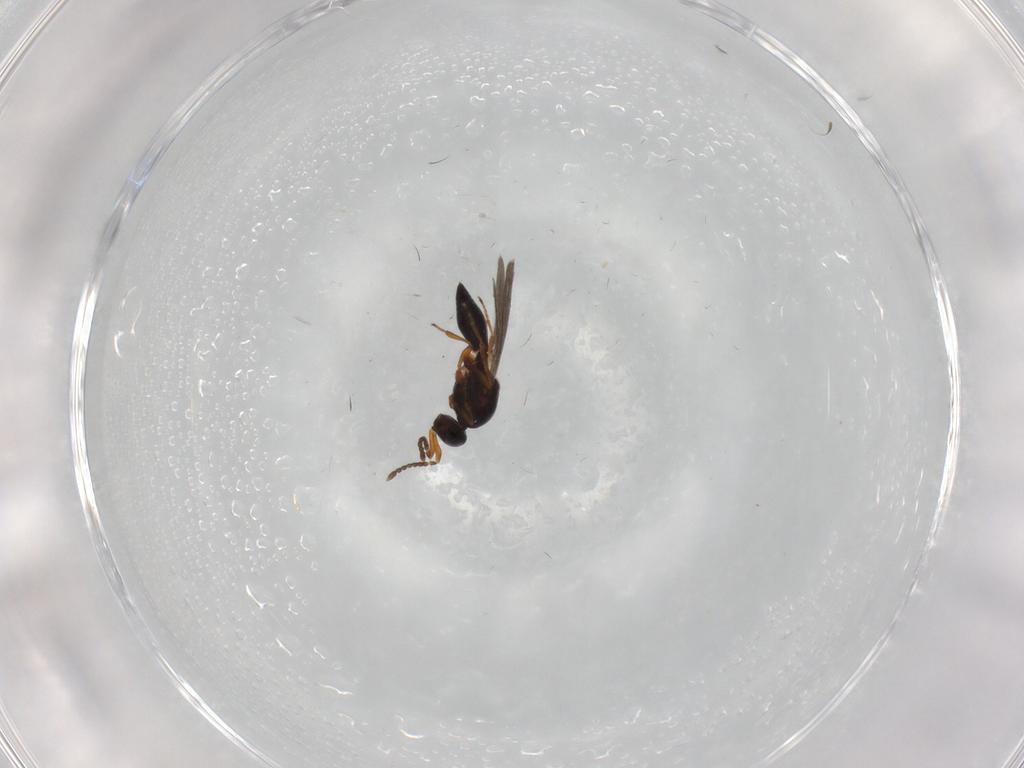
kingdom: Animalia
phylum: Arthropoda
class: Insecta
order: Hymenoptera
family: Platygastridae
